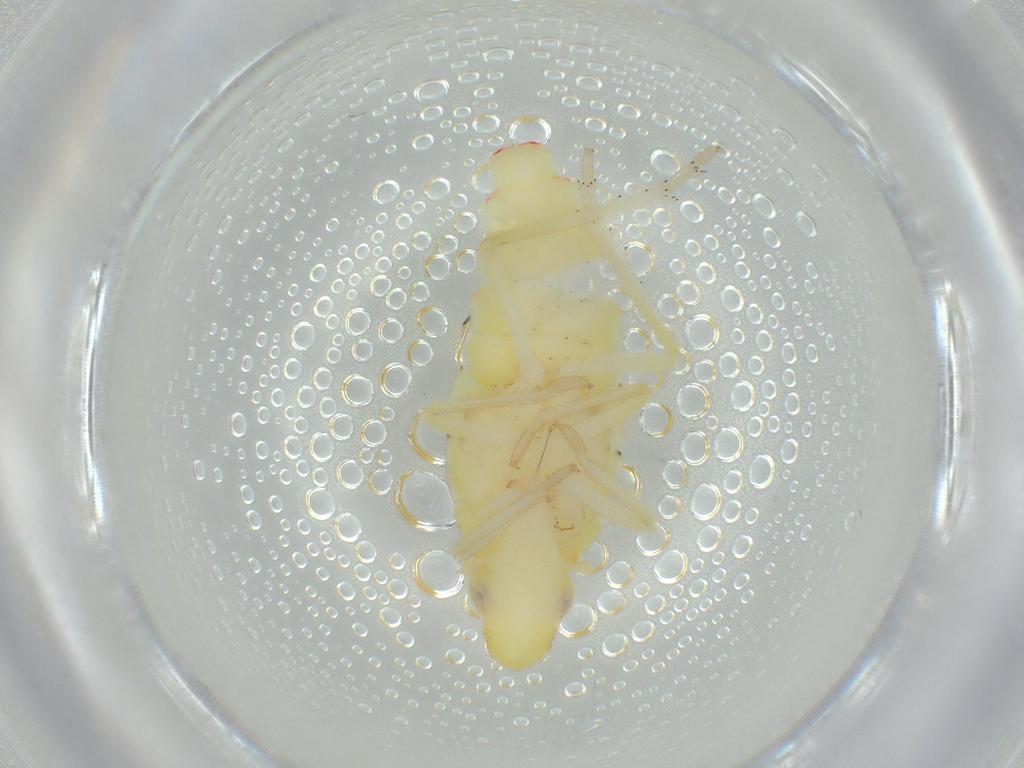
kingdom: Animalia
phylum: Arthropoda
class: Insecta
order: Hemiptera
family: Tropiduchidae
